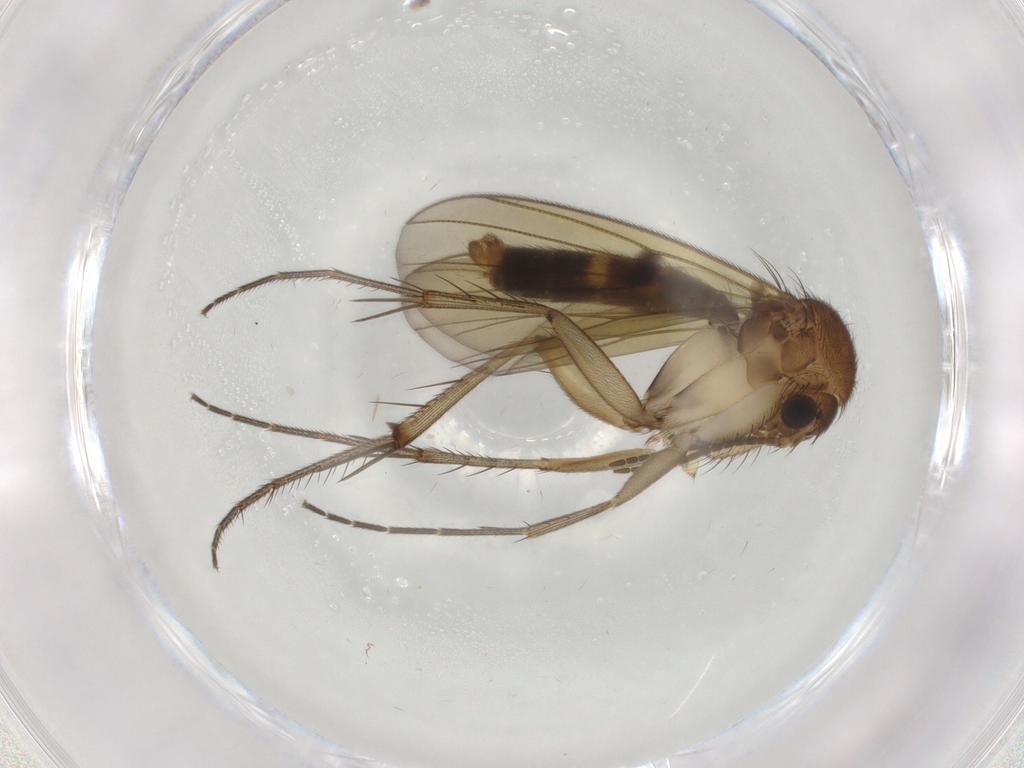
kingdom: Animalia
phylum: Arthropoda
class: Insecta
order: Diptera
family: Mycetophilidae
